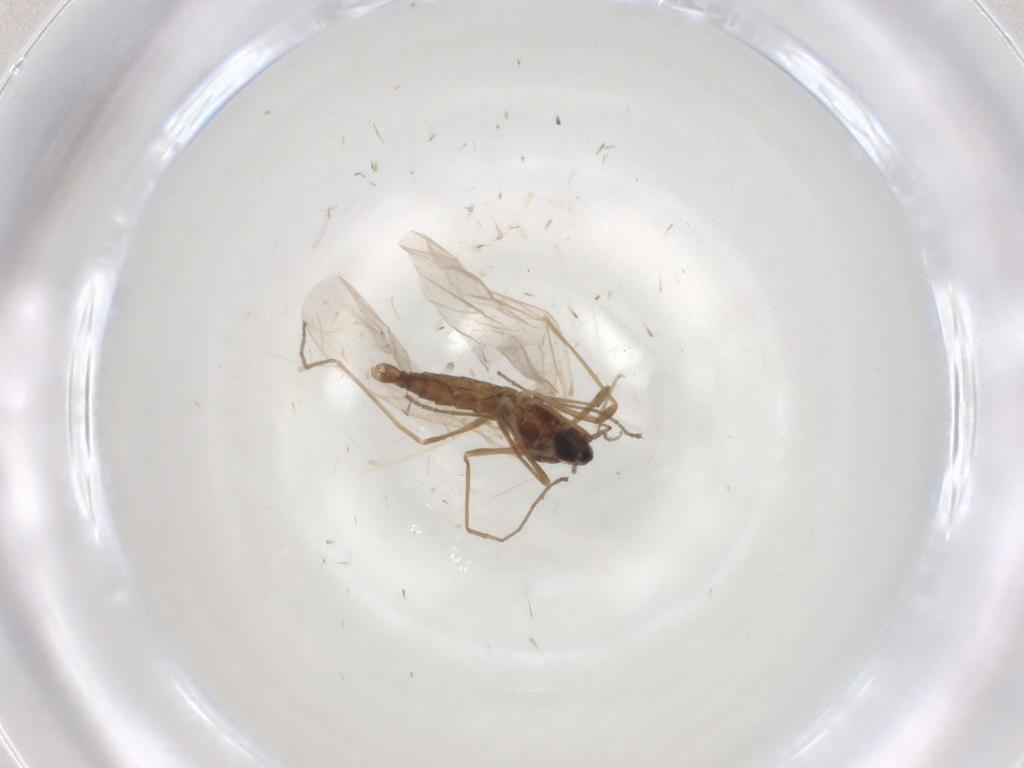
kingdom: Animalia
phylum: Arthropoda
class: Insecta
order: Diptera
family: Cecidomyiidae
